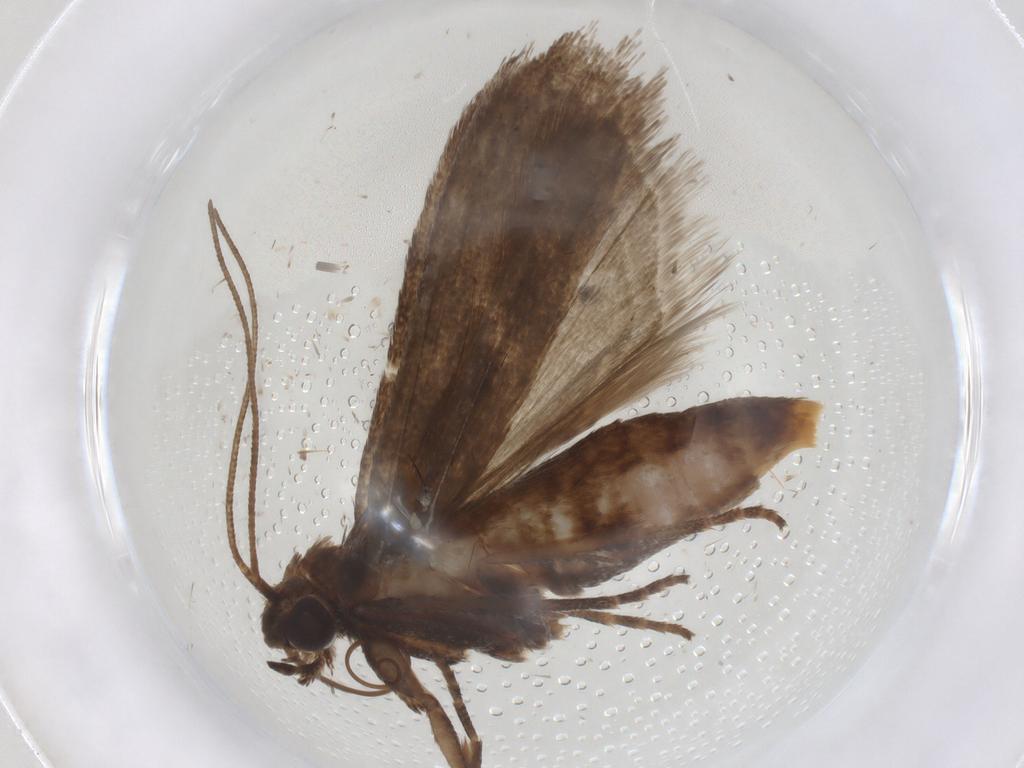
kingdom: Animalia
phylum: Arthropoda
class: Insecta
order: Lepidoptera
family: Coleophoridae
